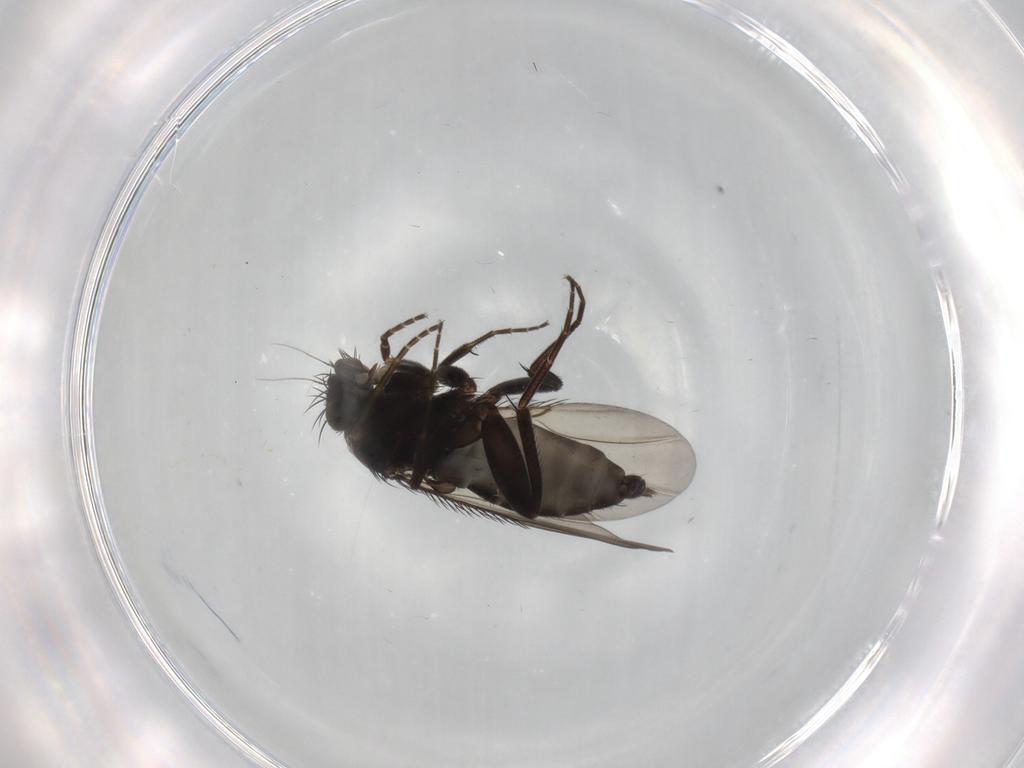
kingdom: Animalia
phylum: Arthropoda
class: Insecta
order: Diptera
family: Phoridae
